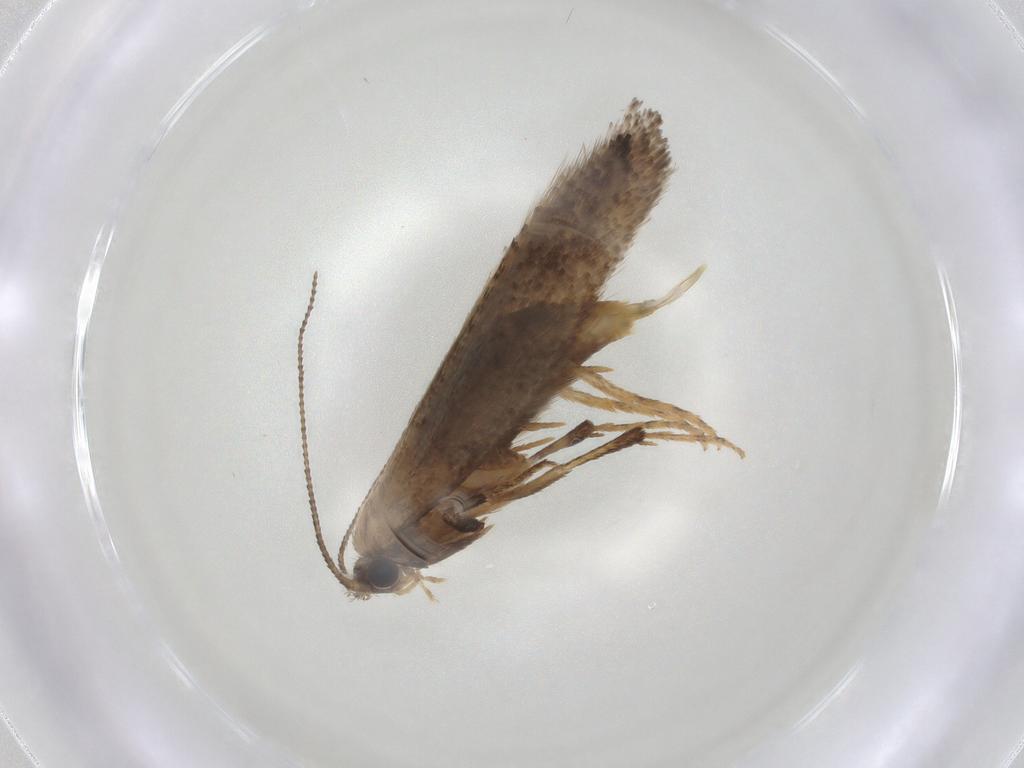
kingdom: Animalia
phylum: Arthropoda
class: Insecta
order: Lepidoptera
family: Nepticulidae
